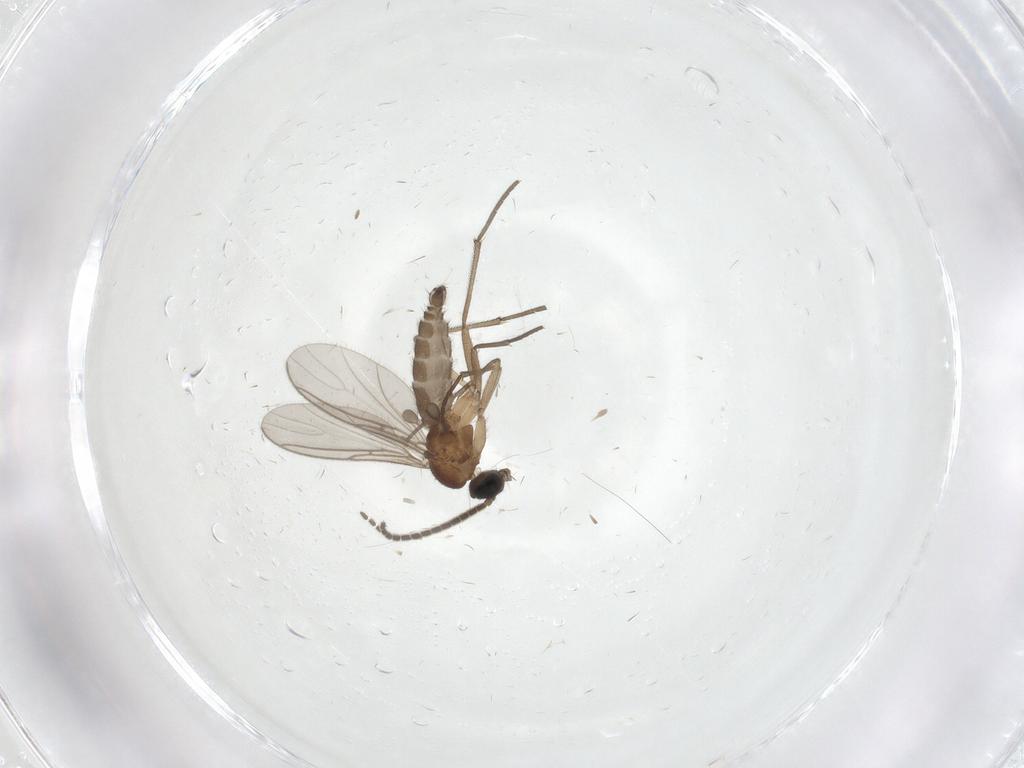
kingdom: Animalia
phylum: Arthropoda
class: Insecta
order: Diptera
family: Sciaridae
